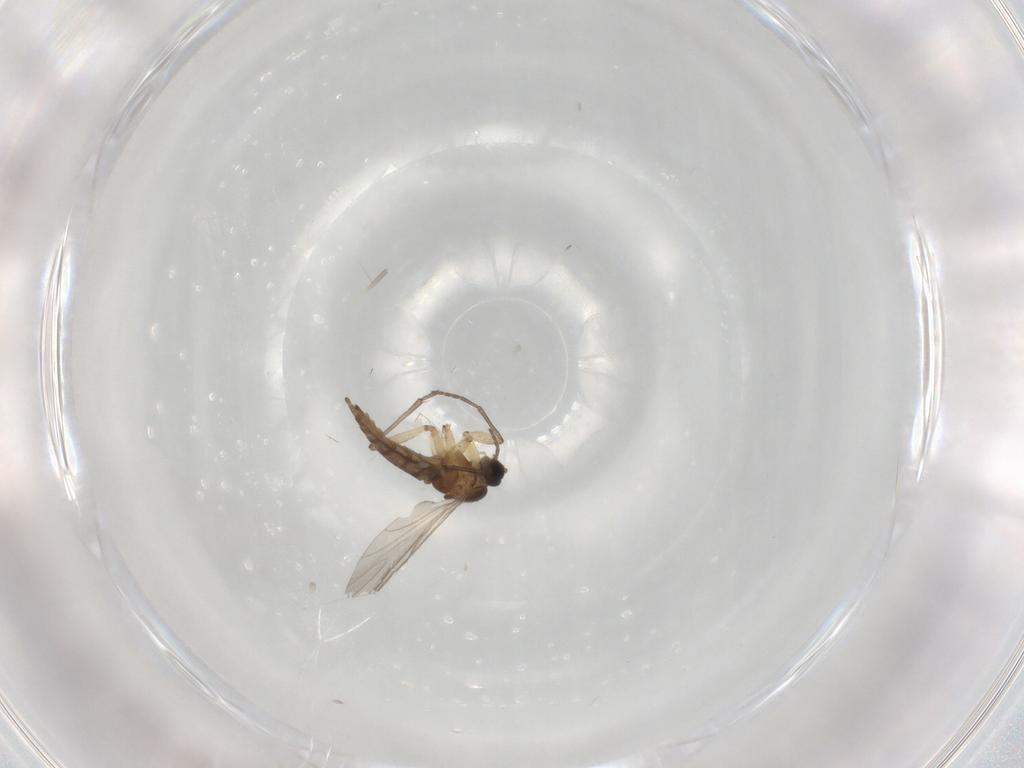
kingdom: Animalia
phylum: Arthropoda
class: Insecta
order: Diptera
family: Sciaridae
